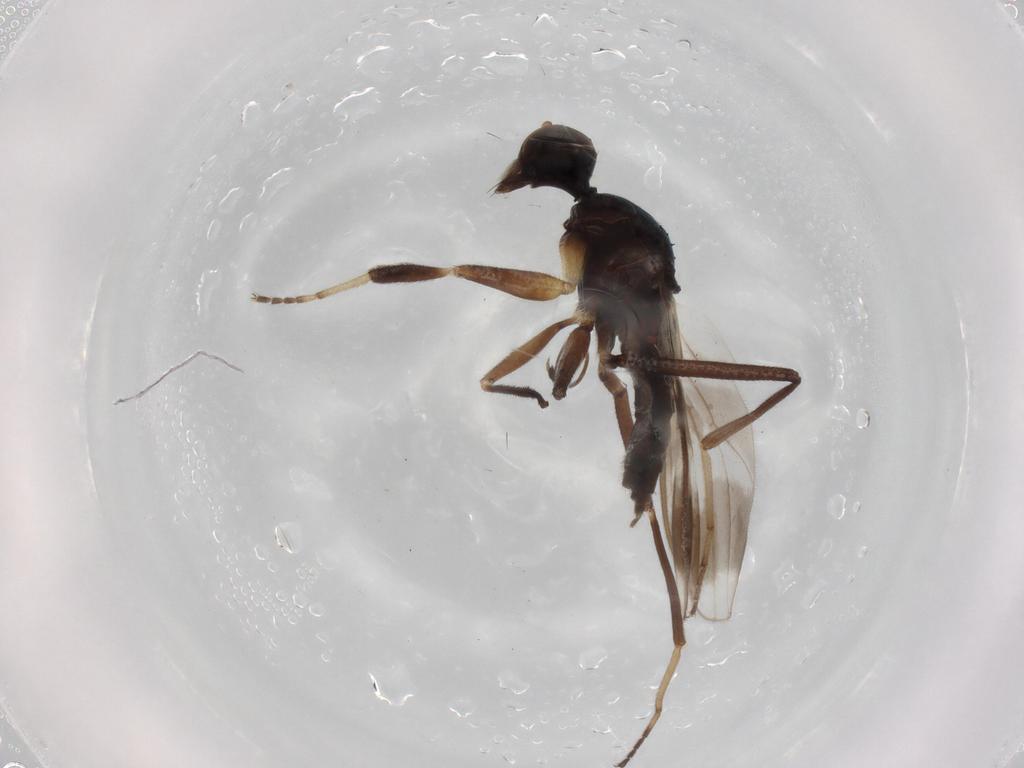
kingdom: Animalia
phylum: Arthropoda
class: Insecta
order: Diptera
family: Hybotidae
